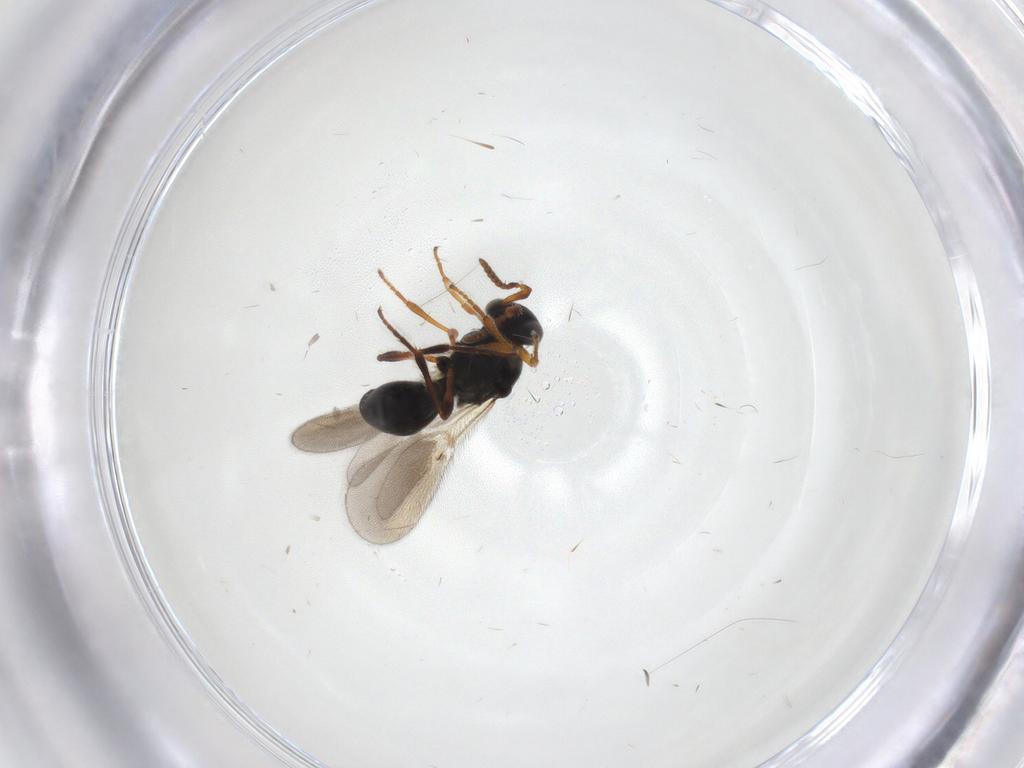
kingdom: Animalia
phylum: Arthropoda
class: Insecta
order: Hymenoptera
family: Platygastridae
